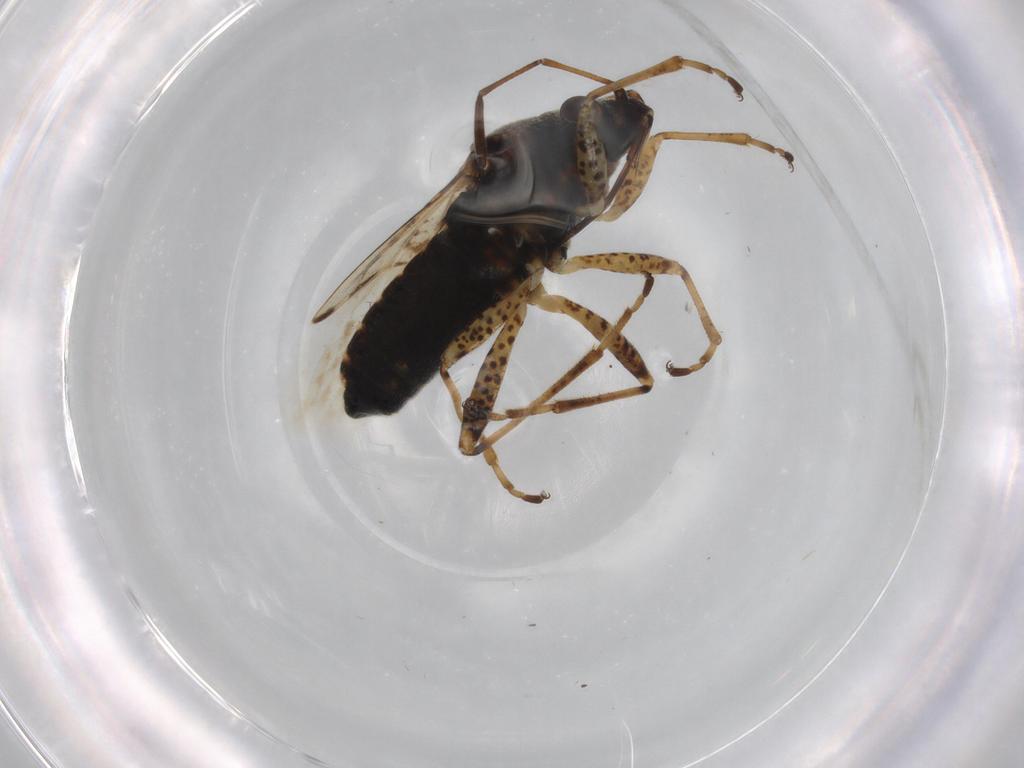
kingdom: Animalia
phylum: Arthropoda
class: Insecta
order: Hemiptera
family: Lygaeidae
